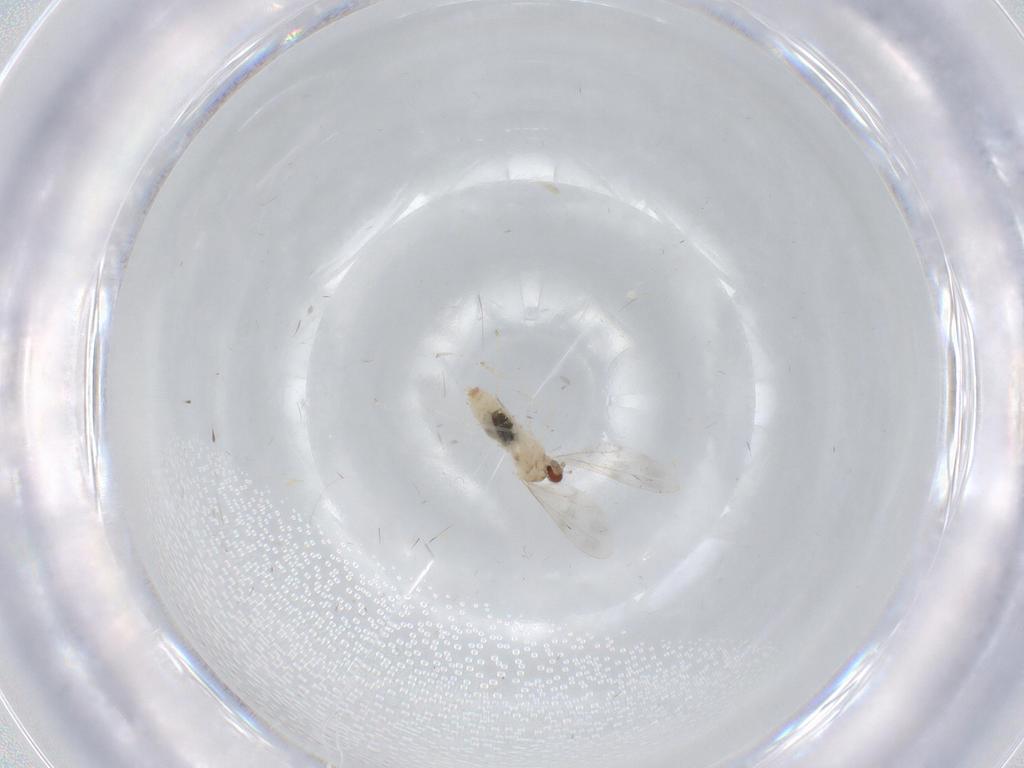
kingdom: Animalia
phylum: Arthropoda
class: Insecta
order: Diptera
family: Cecidomyiidae
